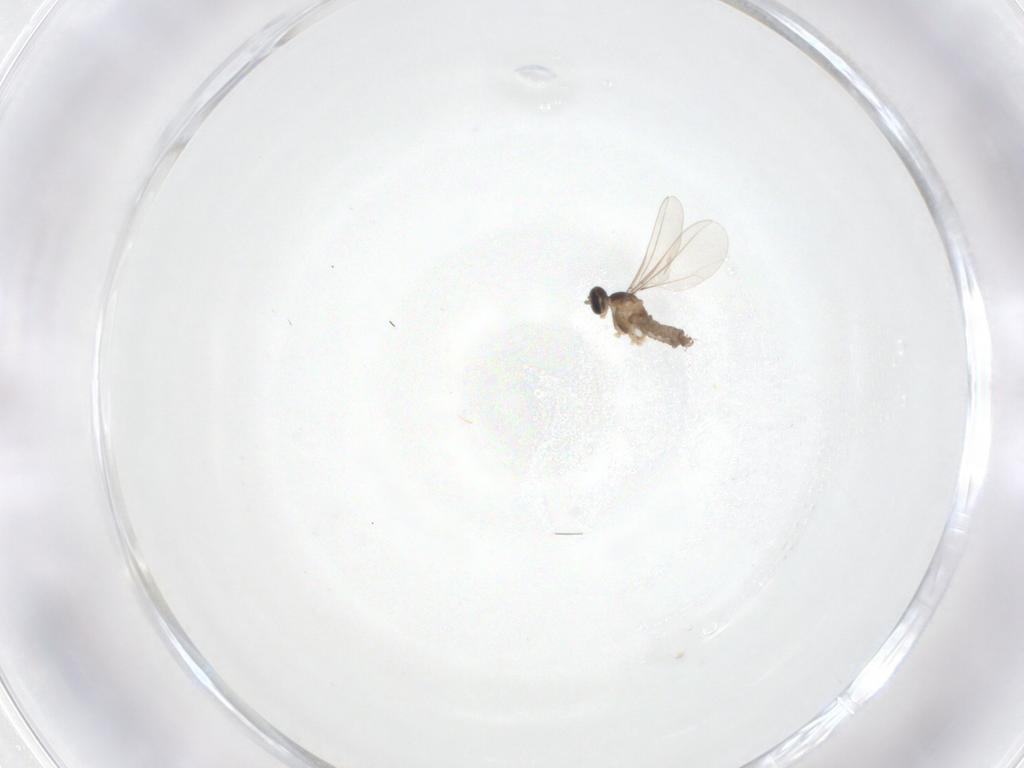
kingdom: Animalia
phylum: Arthropoda
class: Insecta
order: Diptera
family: Cecidomyiidae
